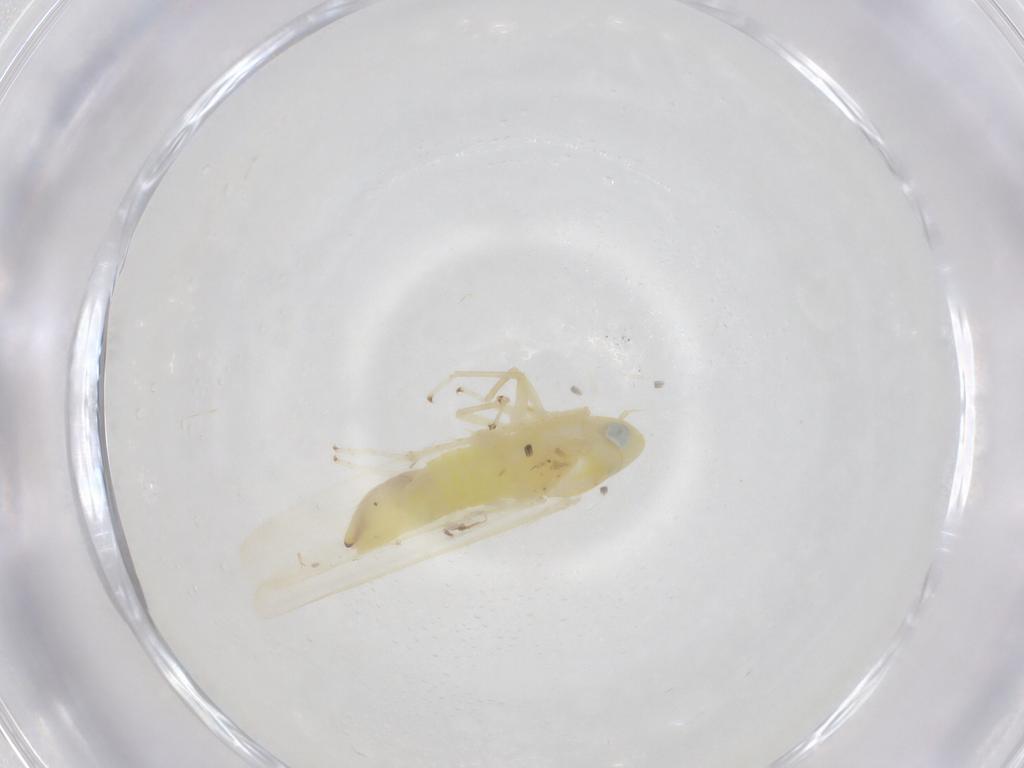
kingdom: Animalia
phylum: Arthropoda
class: Insecta
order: Hemiptera
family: Cicadellidae
